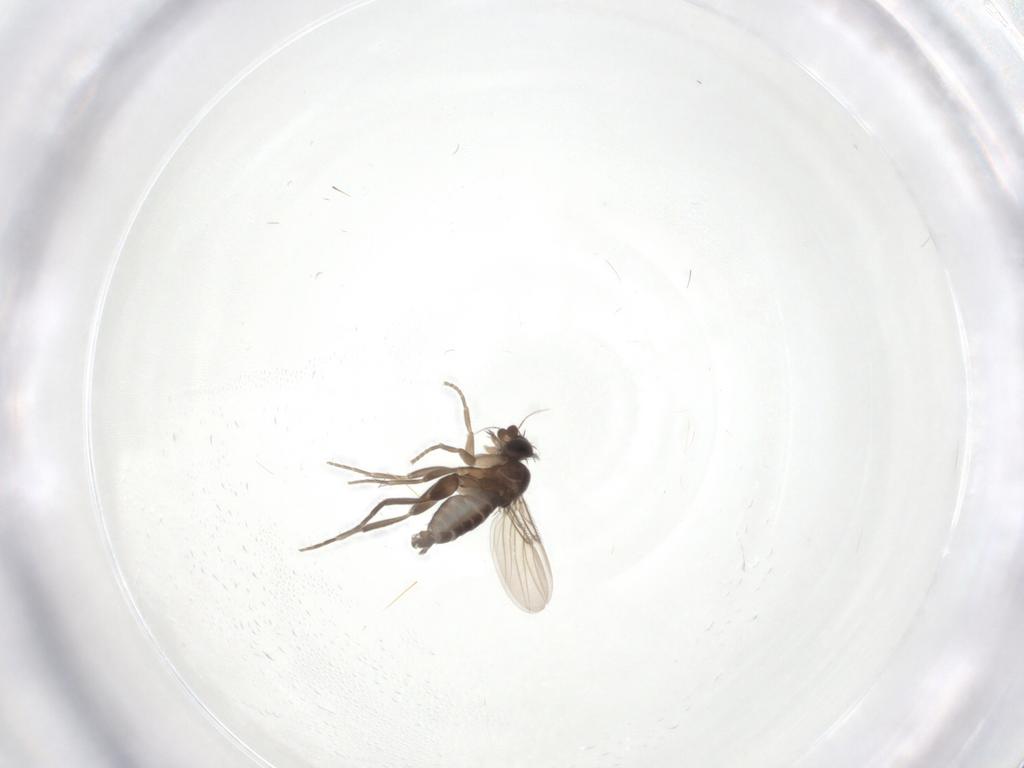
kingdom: Animalia
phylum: Arthropoda
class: Insecta
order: Diptera
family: Phoridae
